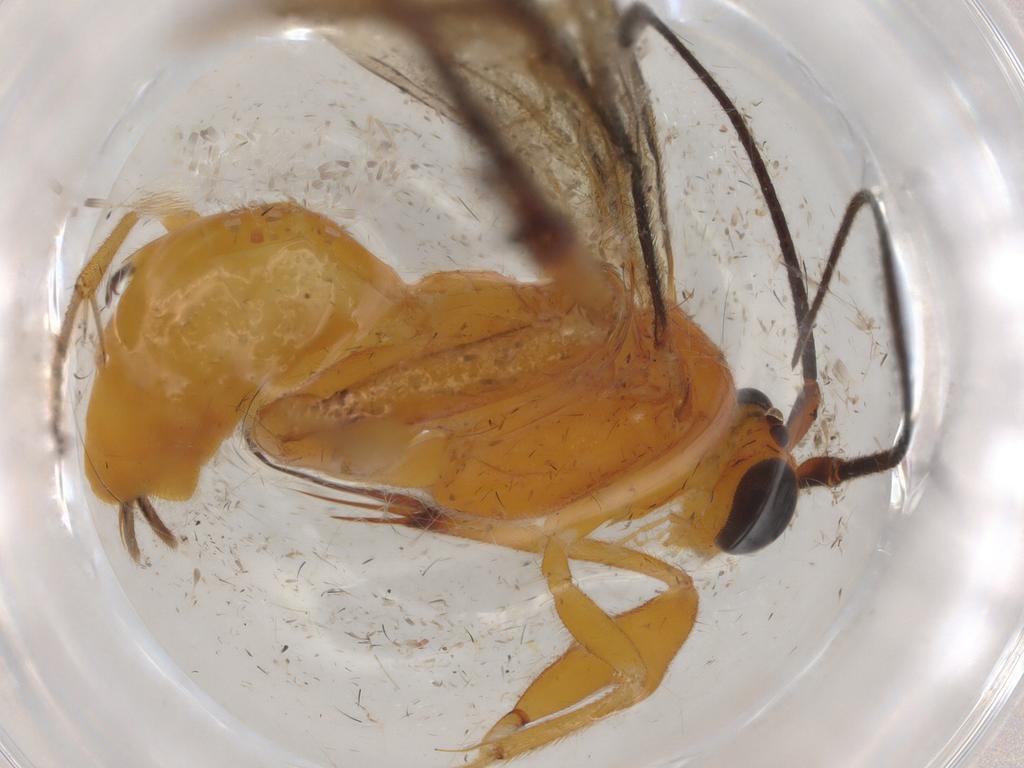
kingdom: Animalia
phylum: Arthropoda
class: Insecta
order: Hymenoptera
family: Braconidae
